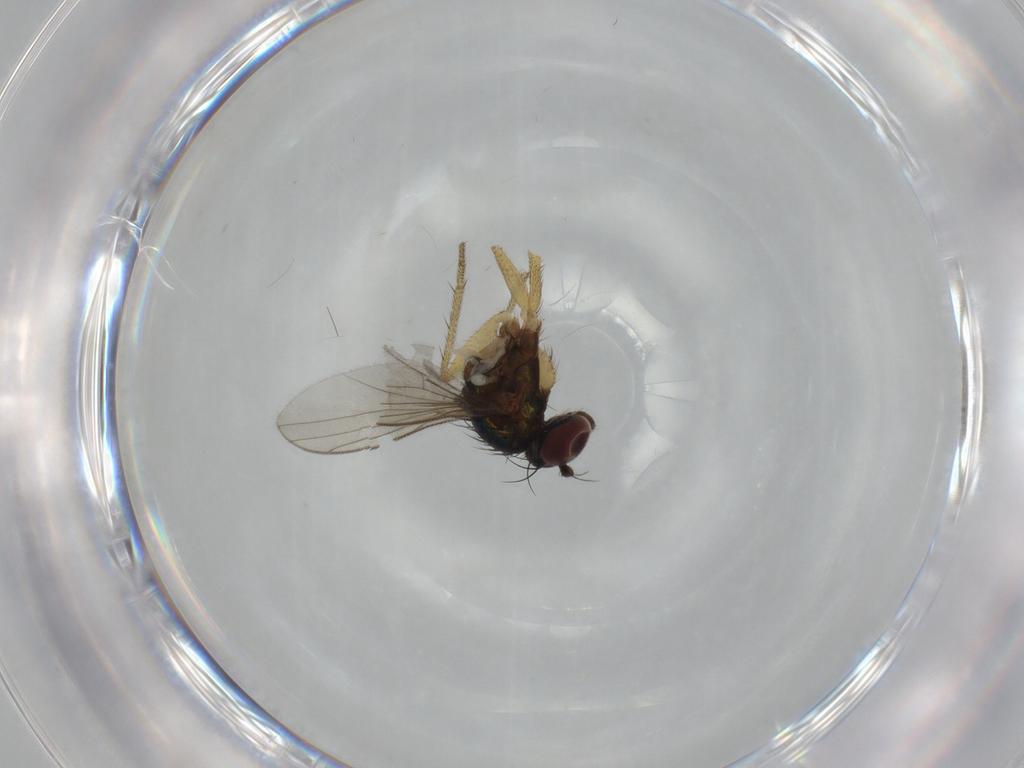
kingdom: Animalia
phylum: Arthropoda
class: Insecta
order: Diptera
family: Dolichopodidae
